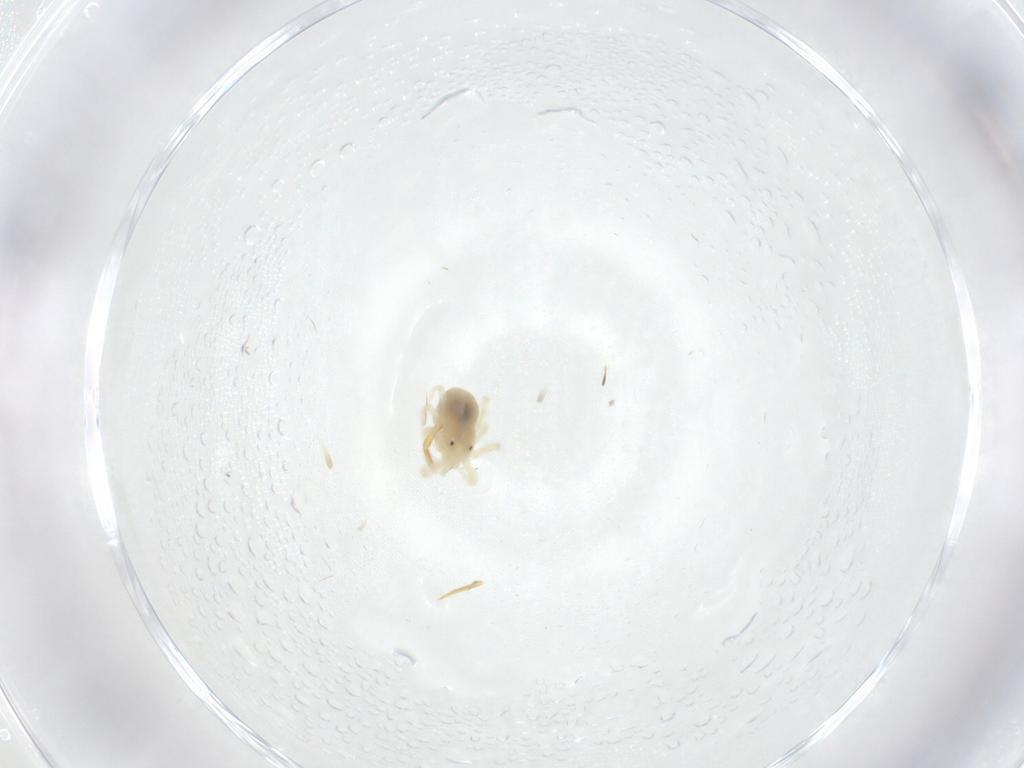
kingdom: Animalia
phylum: Arthropoda
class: Arachnida
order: Trombidiformes
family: Anystidae
